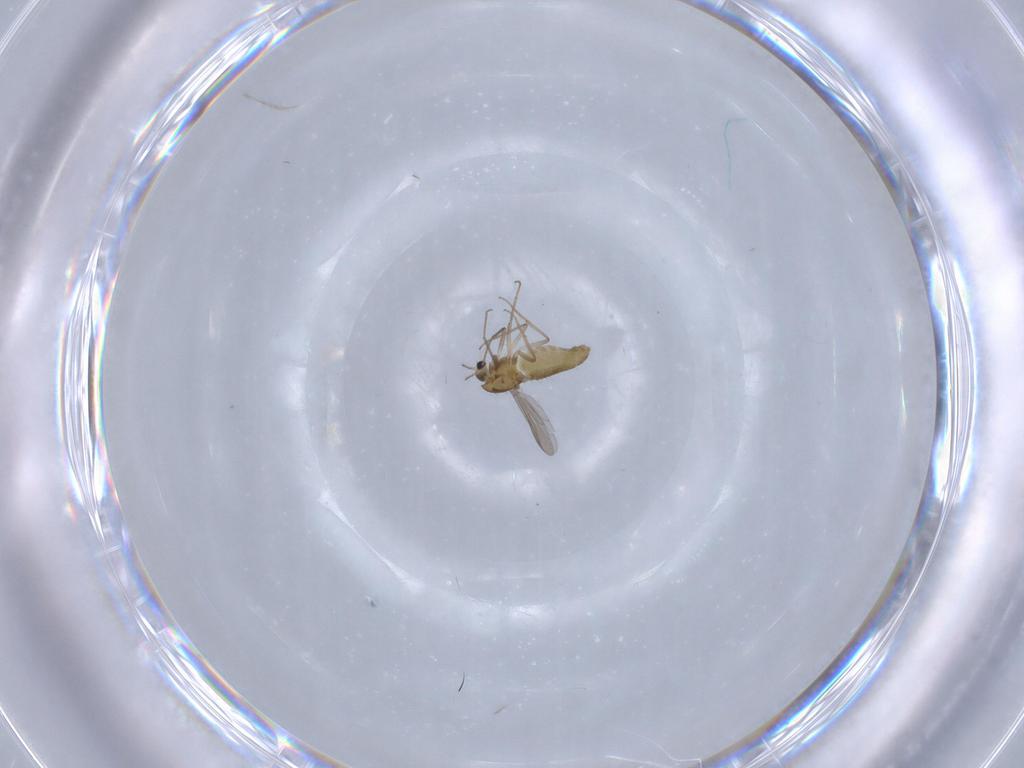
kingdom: Animalia
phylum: Arthropoda
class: Insecta
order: Diptera
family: Chironomidae
